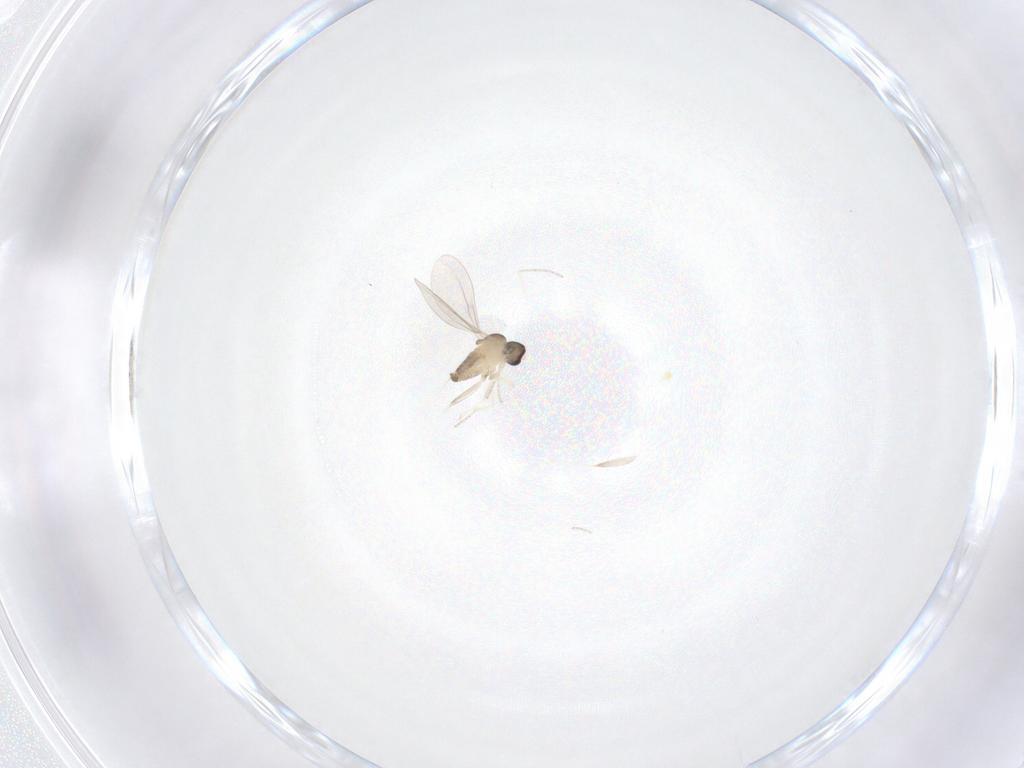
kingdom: Animalia
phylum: Arthropoda
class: Insecta
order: Diptera
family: Cecidomyiidae
